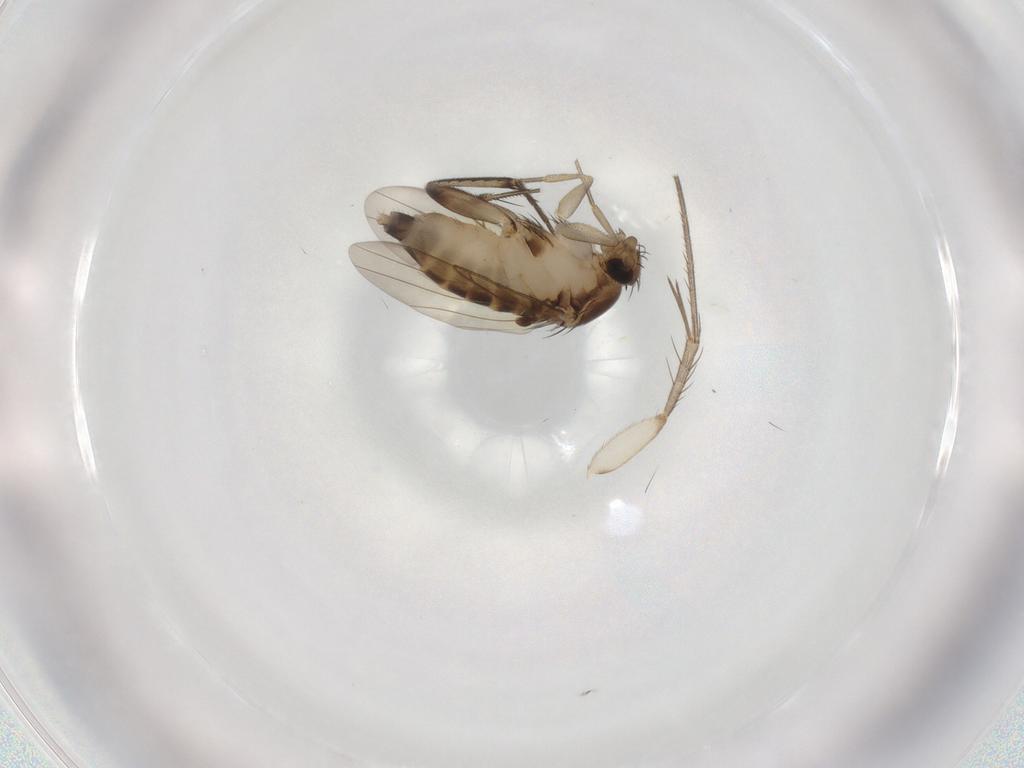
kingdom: Animalia
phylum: Arthropoda
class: Insecta
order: Diptera
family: Phoridae
